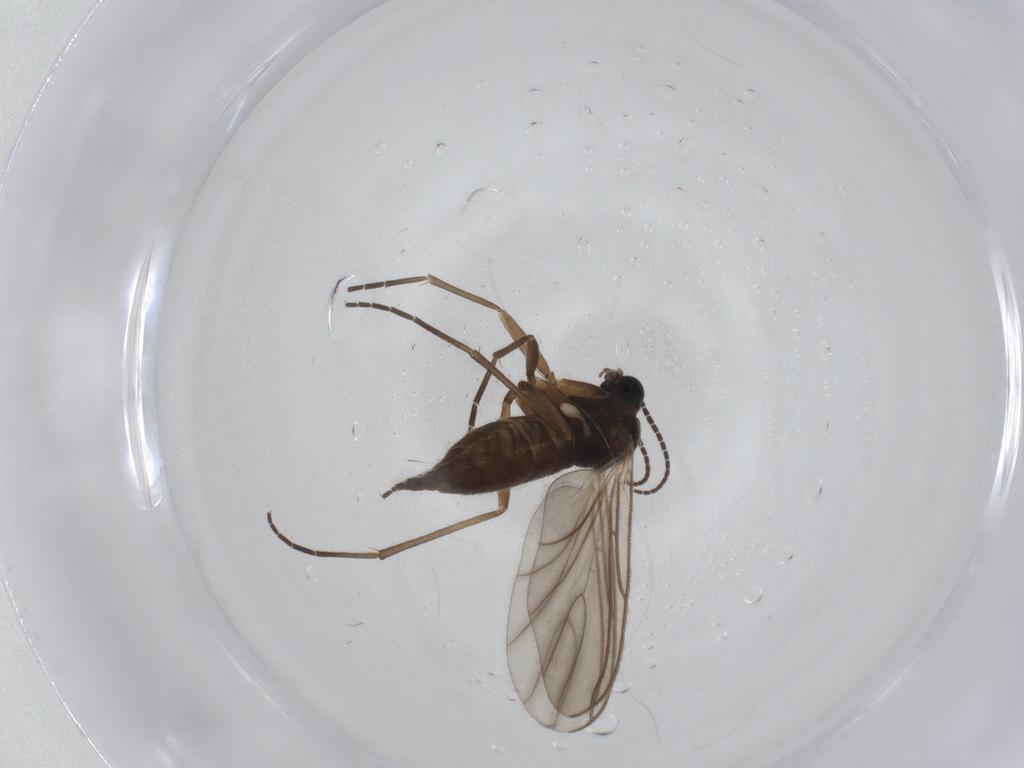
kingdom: Animalia
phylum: Arthropoda
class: Insecta
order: Diptera
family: Sciaridae
